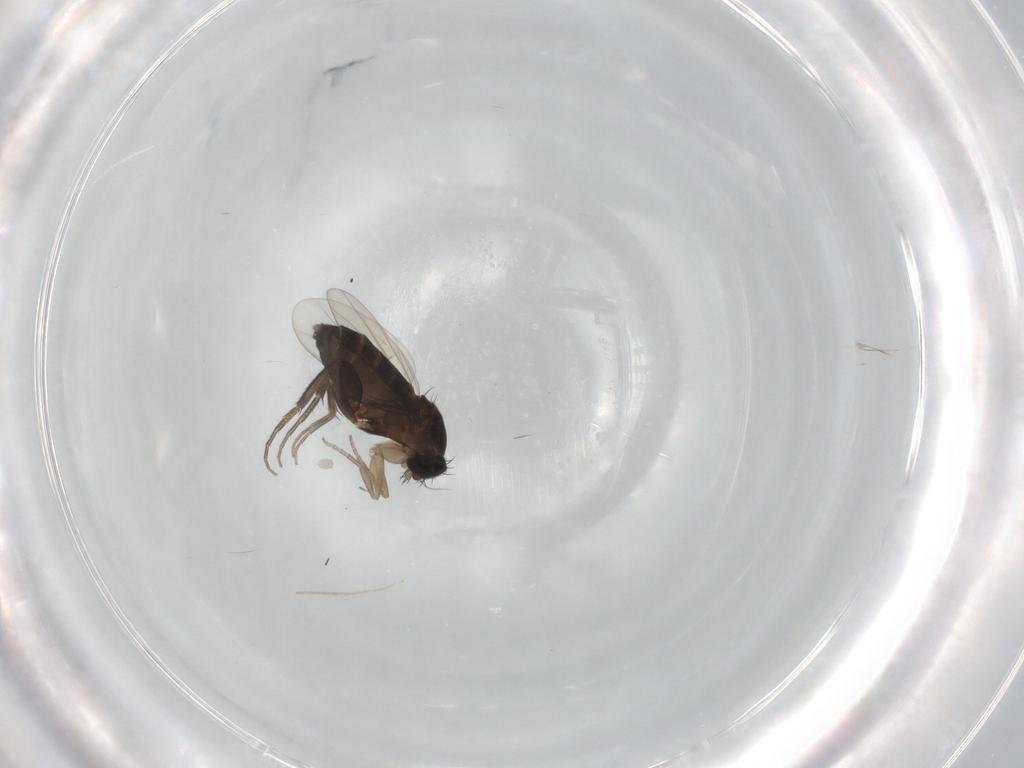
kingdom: Animalia
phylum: Arthropoda
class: Insecta
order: Diptera
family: Phoridae
